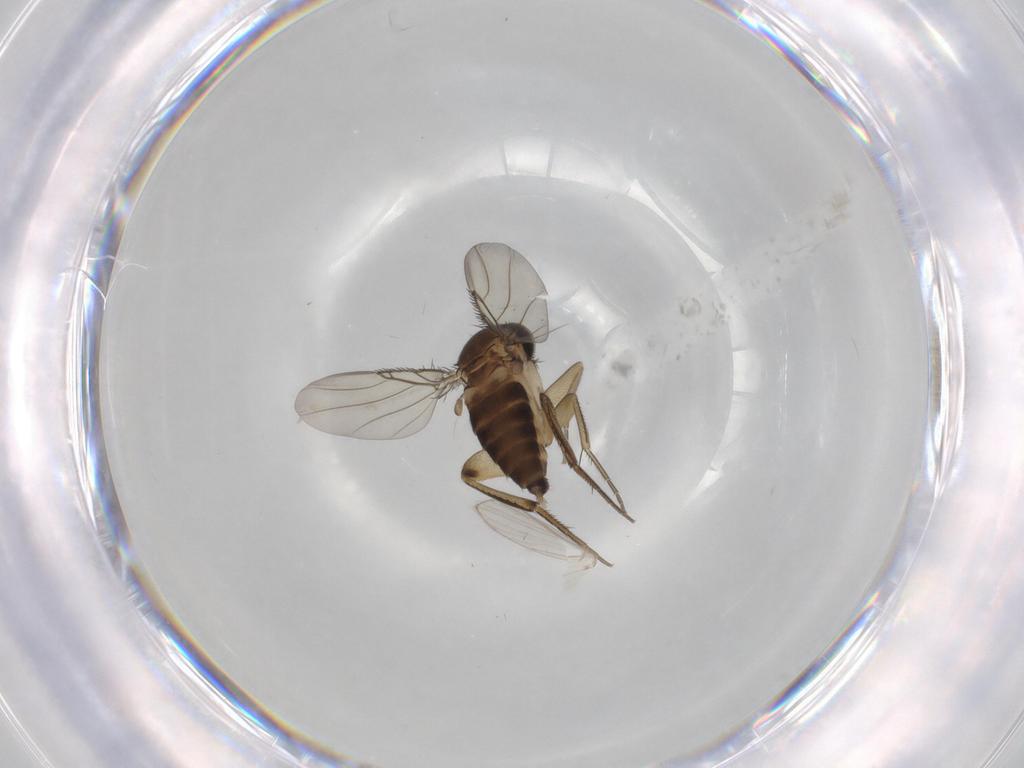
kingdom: Animalia
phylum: Arthropoda
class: Insecta
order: Diptera
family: Phoridae
